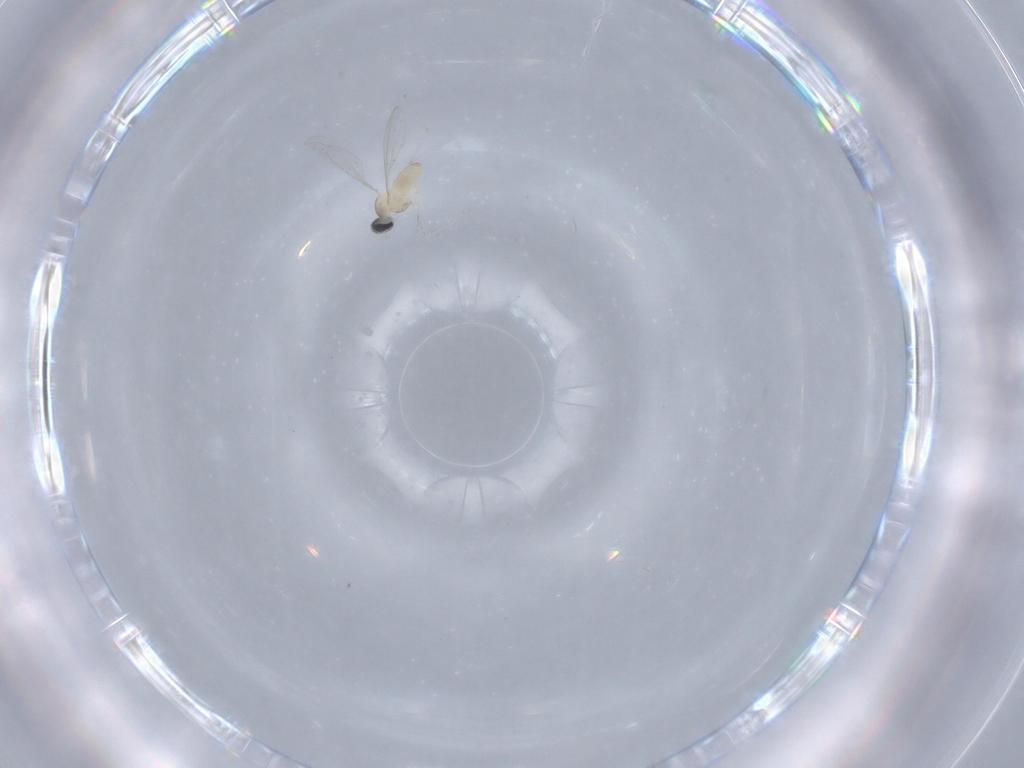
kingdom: Animalia
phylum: Arthropoda
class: Insecta
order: Diptera
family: Cecidomyiidae
